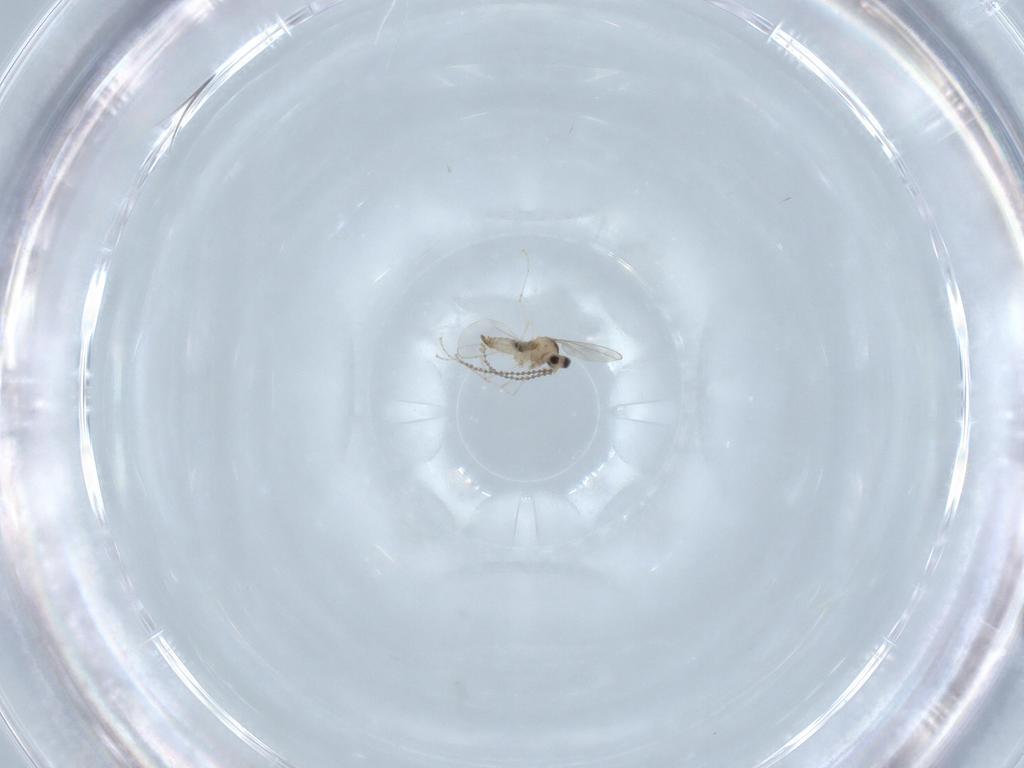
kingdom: Animalia
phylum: Arthropoda
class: Insecta
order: Diptera
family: Cecidomyiidae
